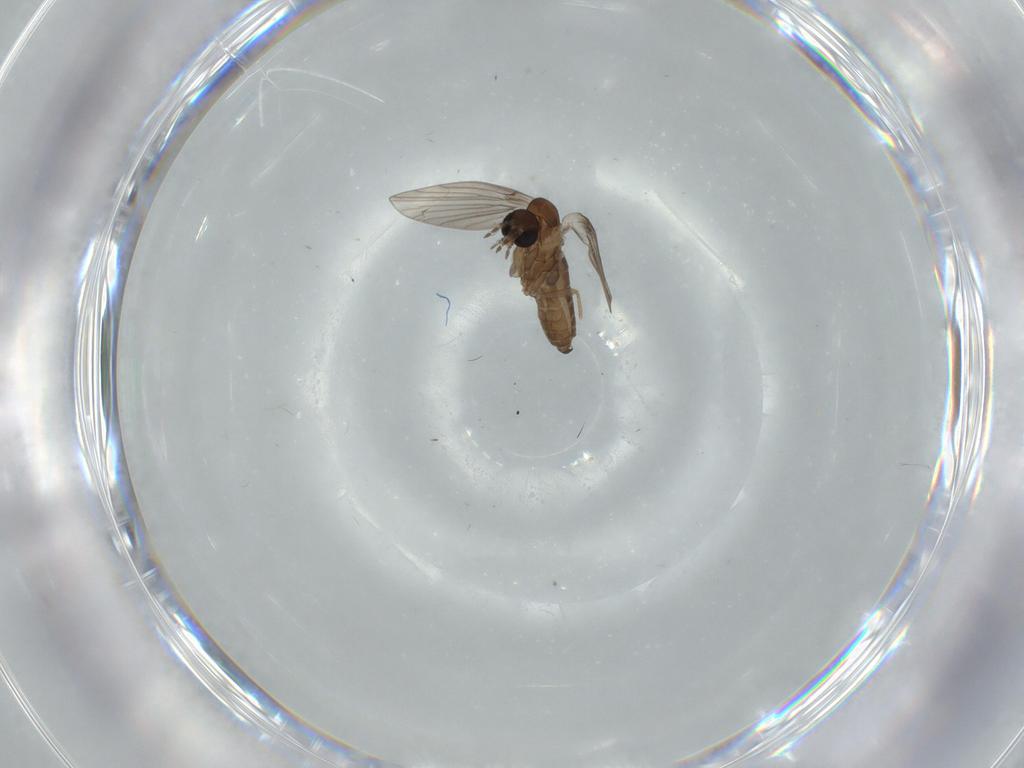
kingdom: Animalia
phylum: Arthropoda
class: Insecta
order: Diptera
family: Psychodidae
